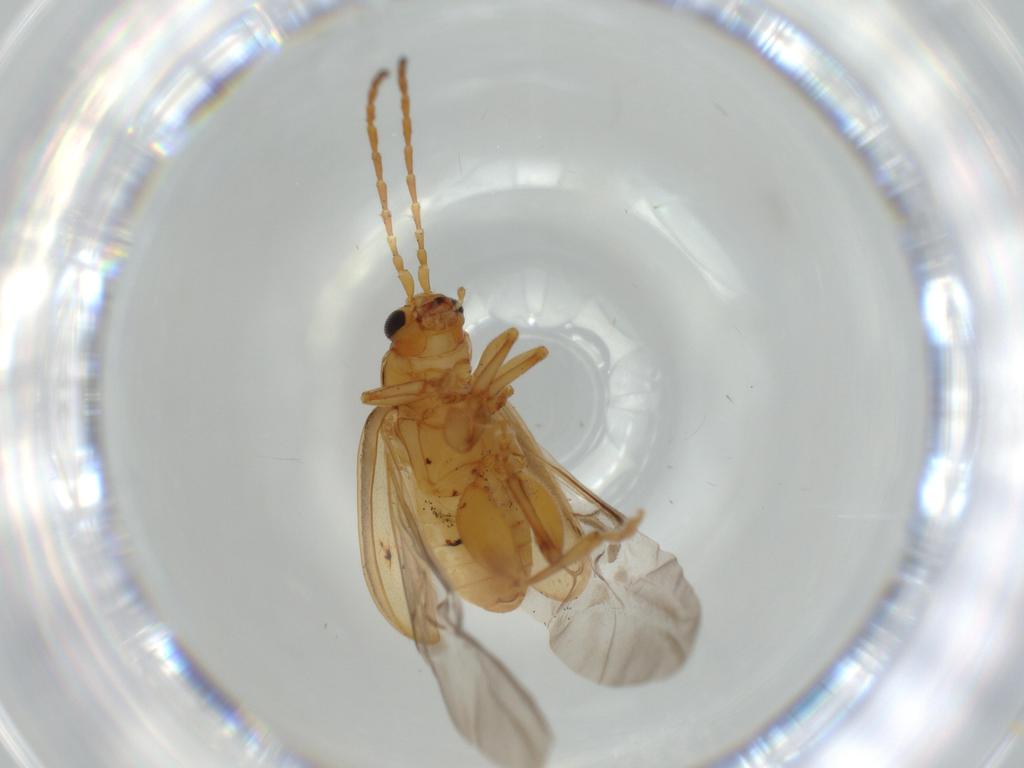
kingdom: Animalia
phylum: Arthropoda
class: Insecta
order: Coleoptera
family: Chrysomelidae
